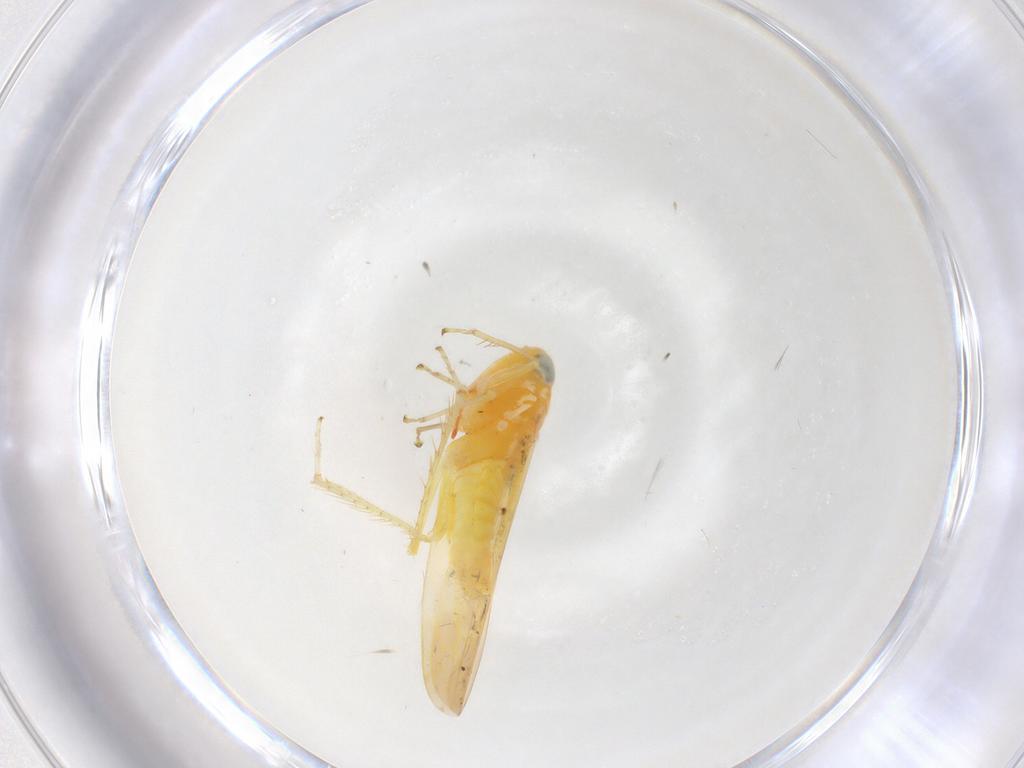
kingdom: Animalia
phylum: Arthropoda
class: Insecta
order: Hemiptera
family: Cicadellidae
